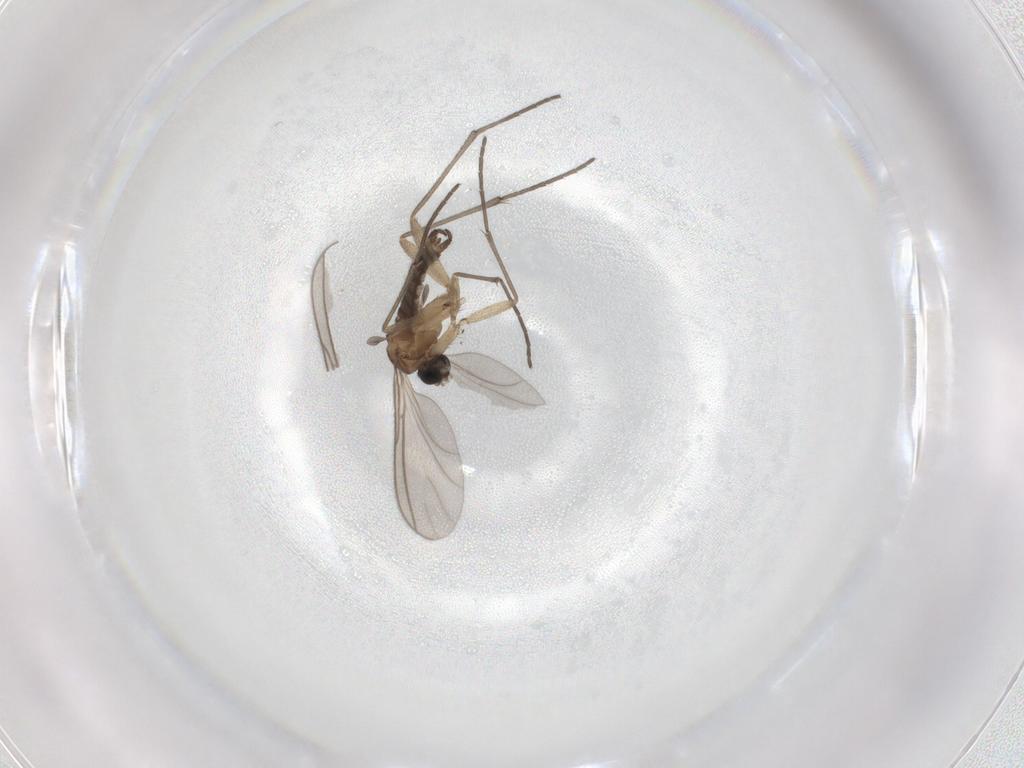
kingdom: Animalia
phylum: Arthropoda
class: Insecta
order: Diptera
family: Sciaridae
